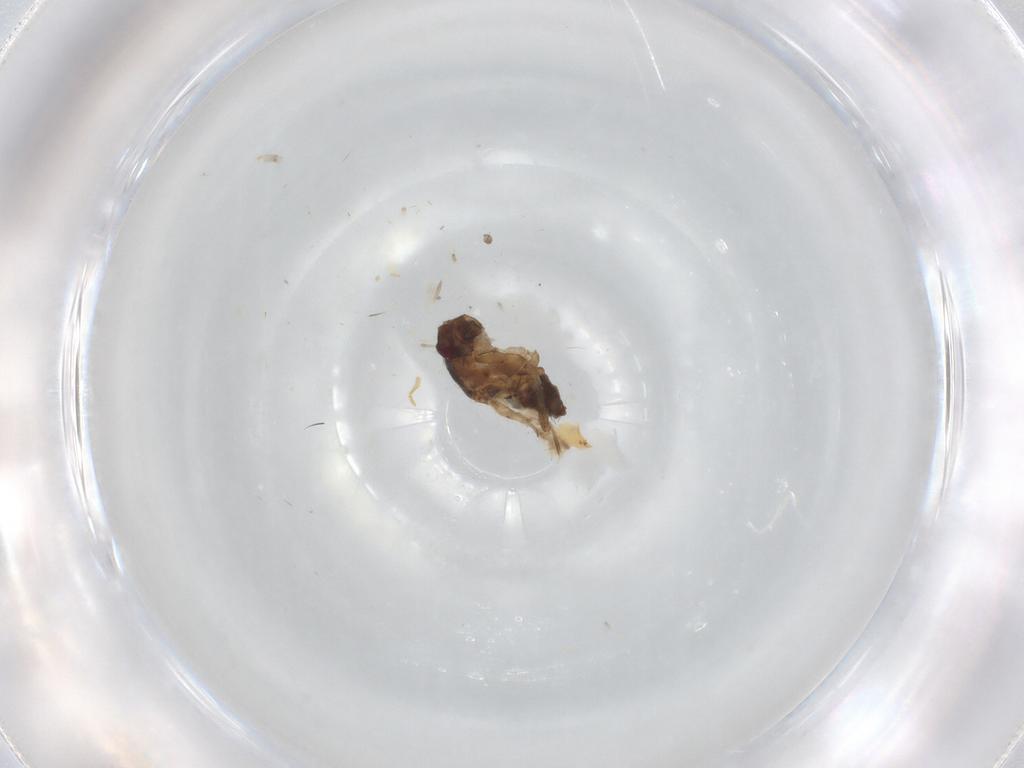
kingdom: Animalia
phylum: Arthropoda
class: Insecta
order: Diptera
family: Sphaeroceridae
